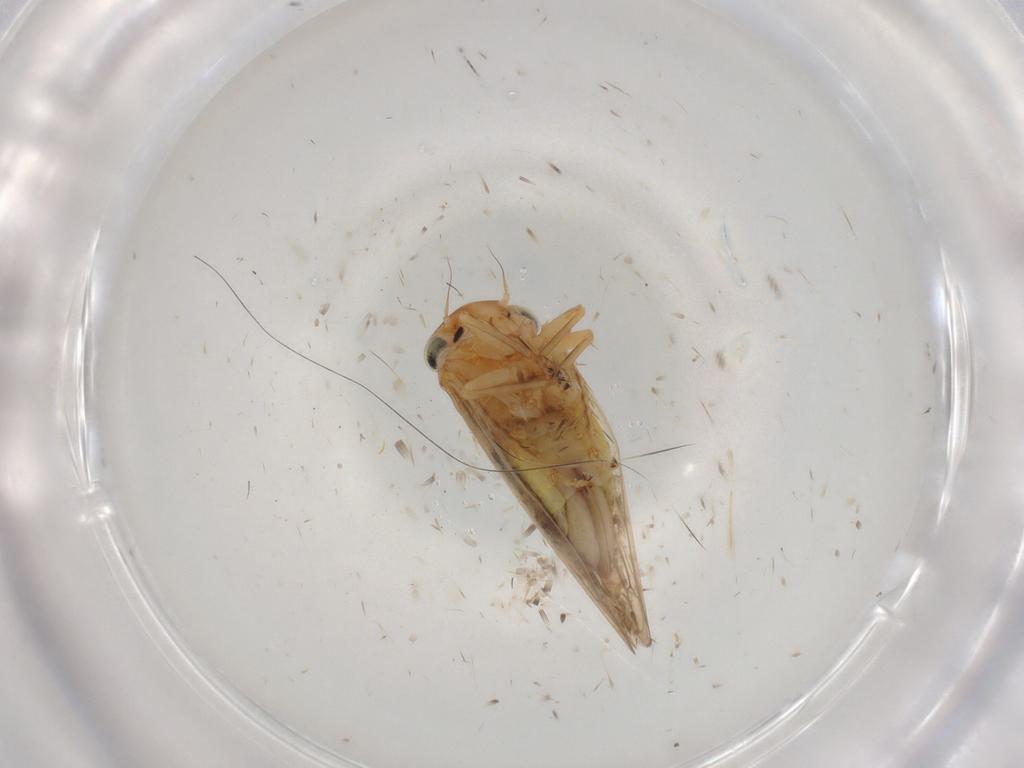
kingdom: Animalia
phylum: Arthropoda
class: Insecta
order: Hemiptera
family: Cicadellidae
